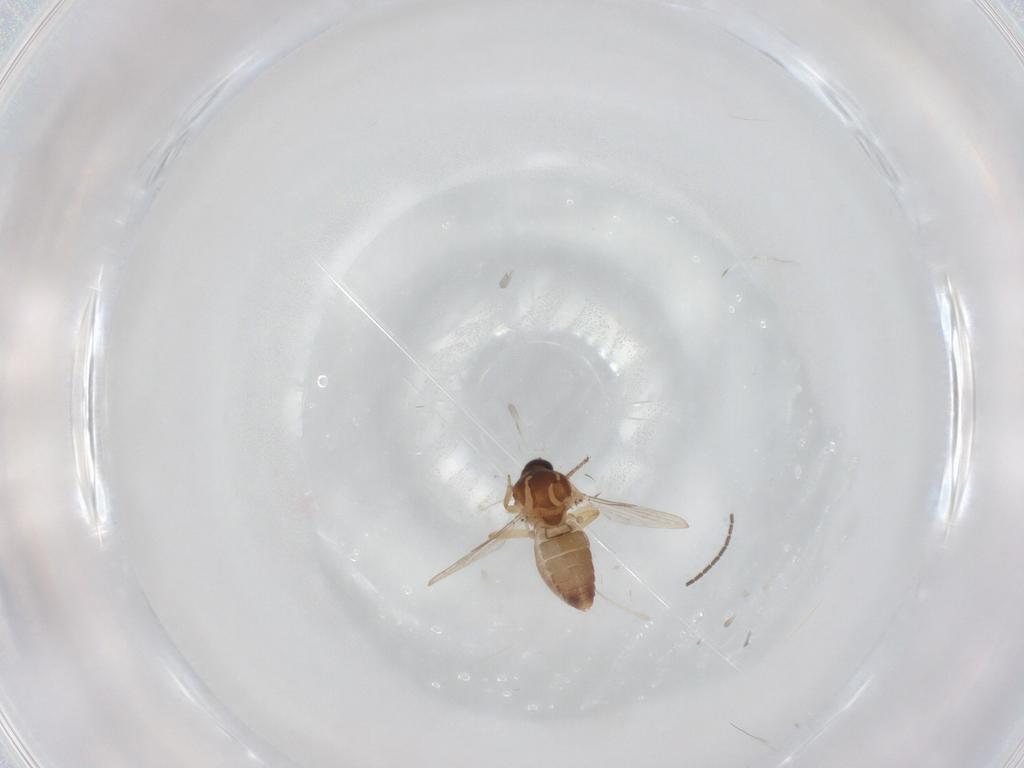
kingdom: Animalia
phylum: Arthropoda
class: Insecta
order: Diptera
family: Ceratopogonidae
